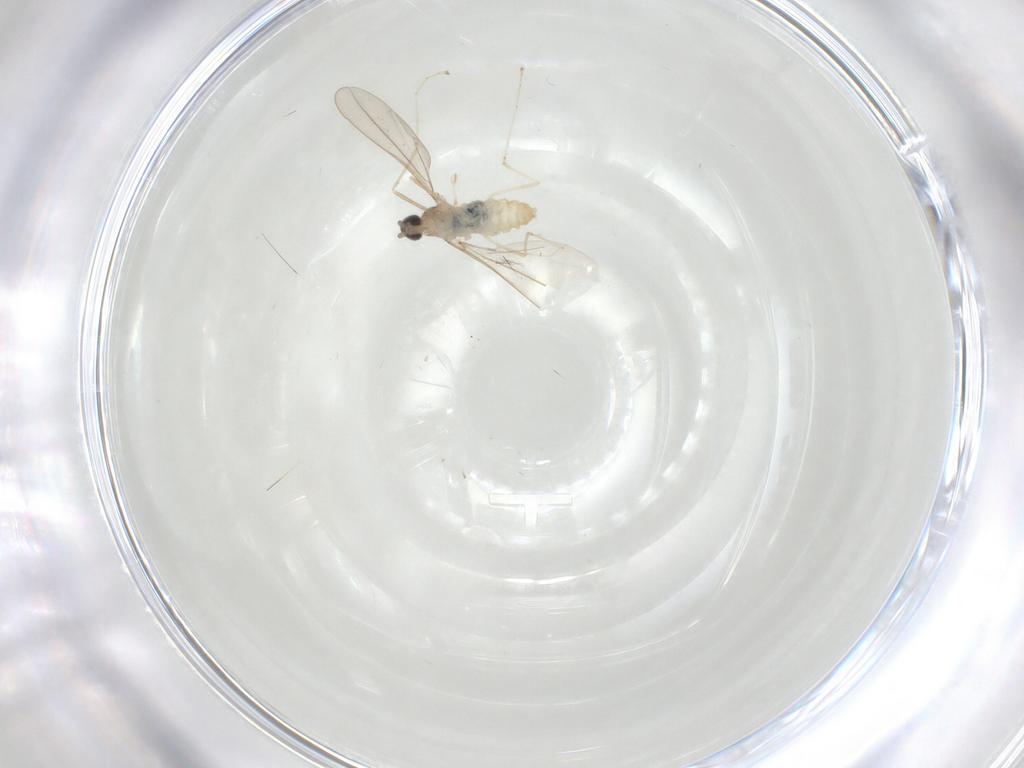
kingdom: Animalia
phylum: Arthropoda
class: Insecta
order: Diptera
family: Cecidomyiidae
